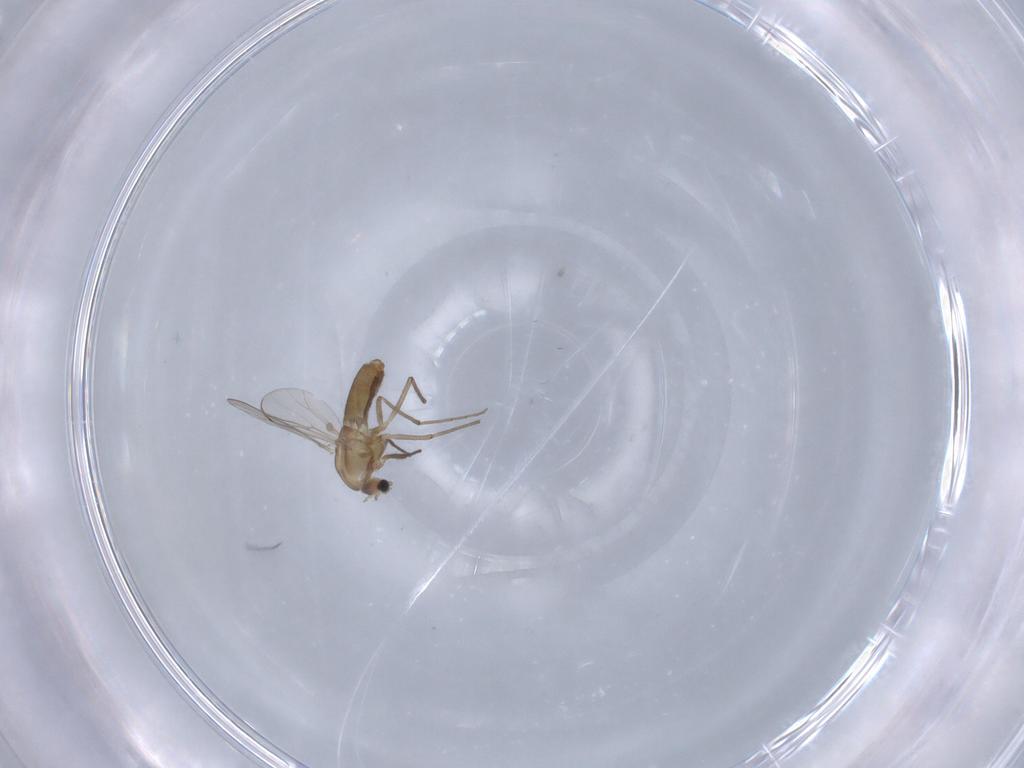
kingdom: Animalia
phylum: Arthropoda
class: Insecta
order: Diptera
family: Chironomidae
